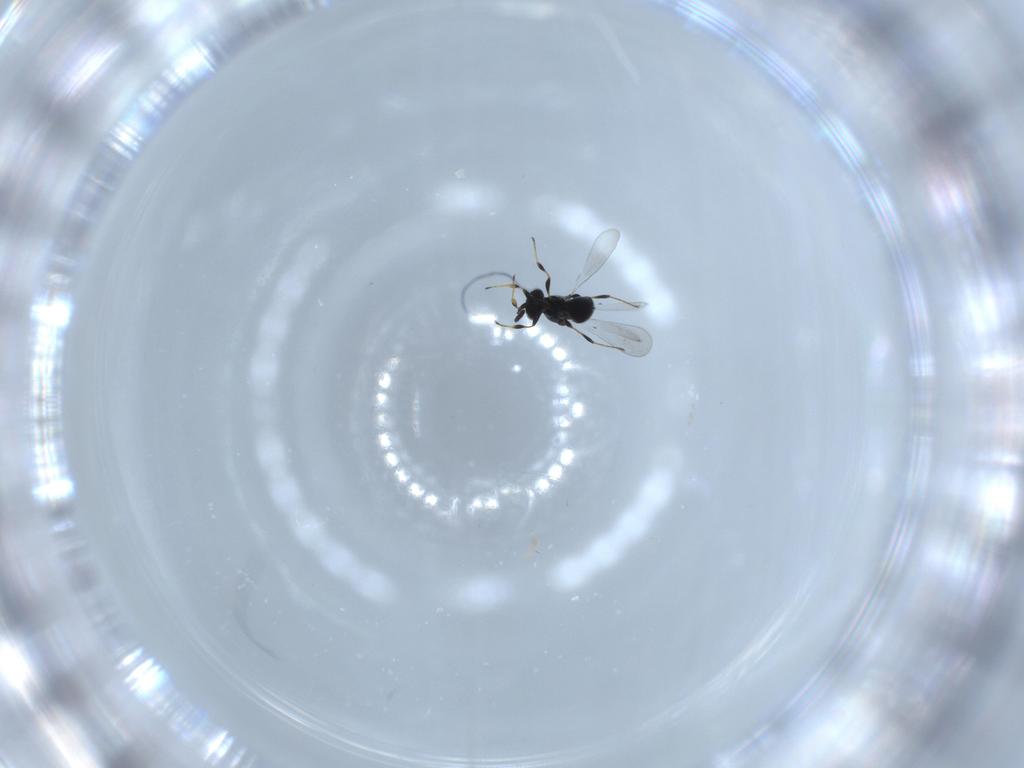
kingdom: Animalia
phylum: Arthropoda
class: Insecta
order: Hymenoptera
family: Platygastridae
